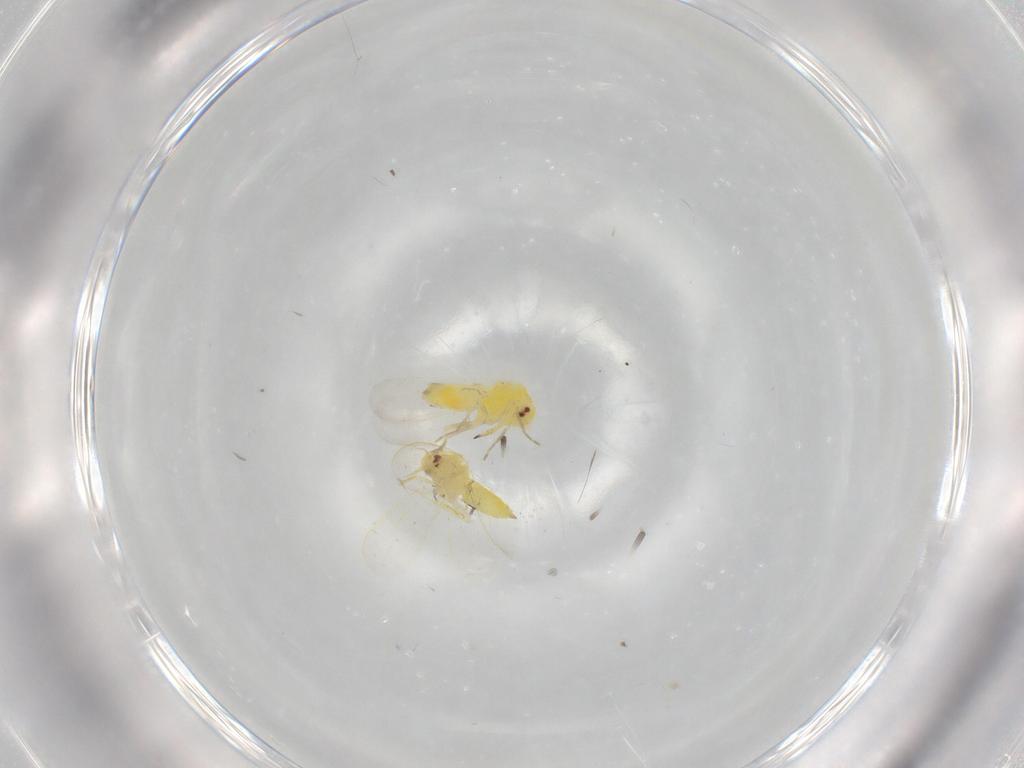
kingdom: Animalia
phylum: Arthropoda
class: Insecta
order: Hemiptera
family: Aleyrodidae
